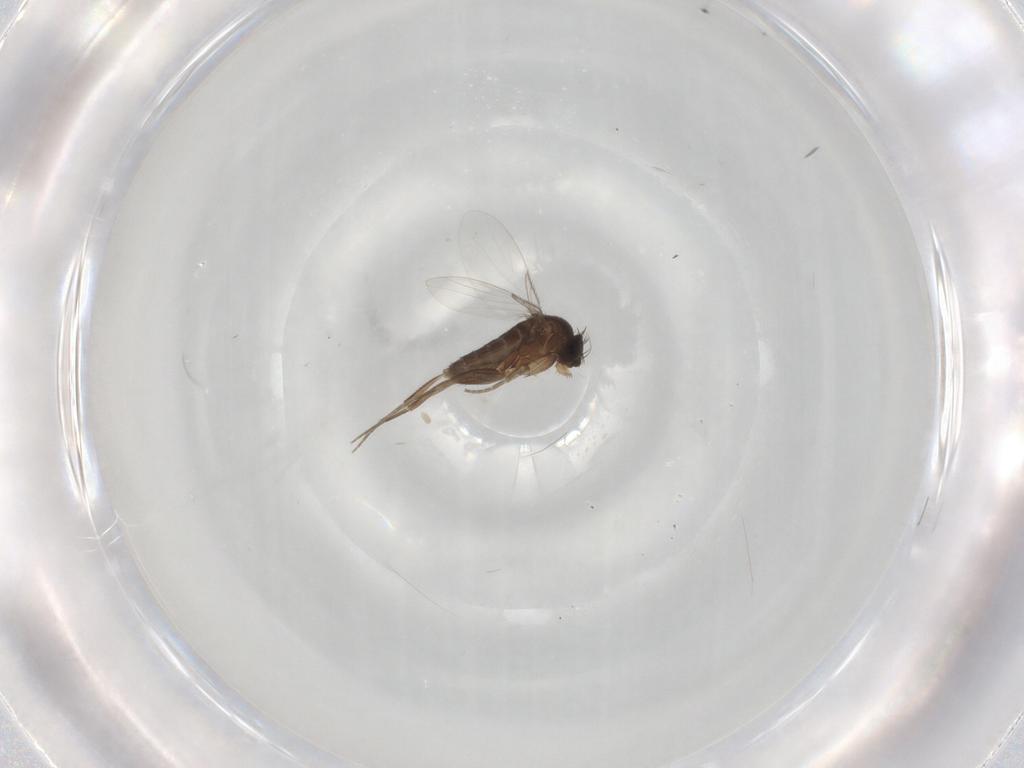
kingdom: Animalia
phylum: Arthropoda
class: Insecta
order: Diptera
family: Phoridae
